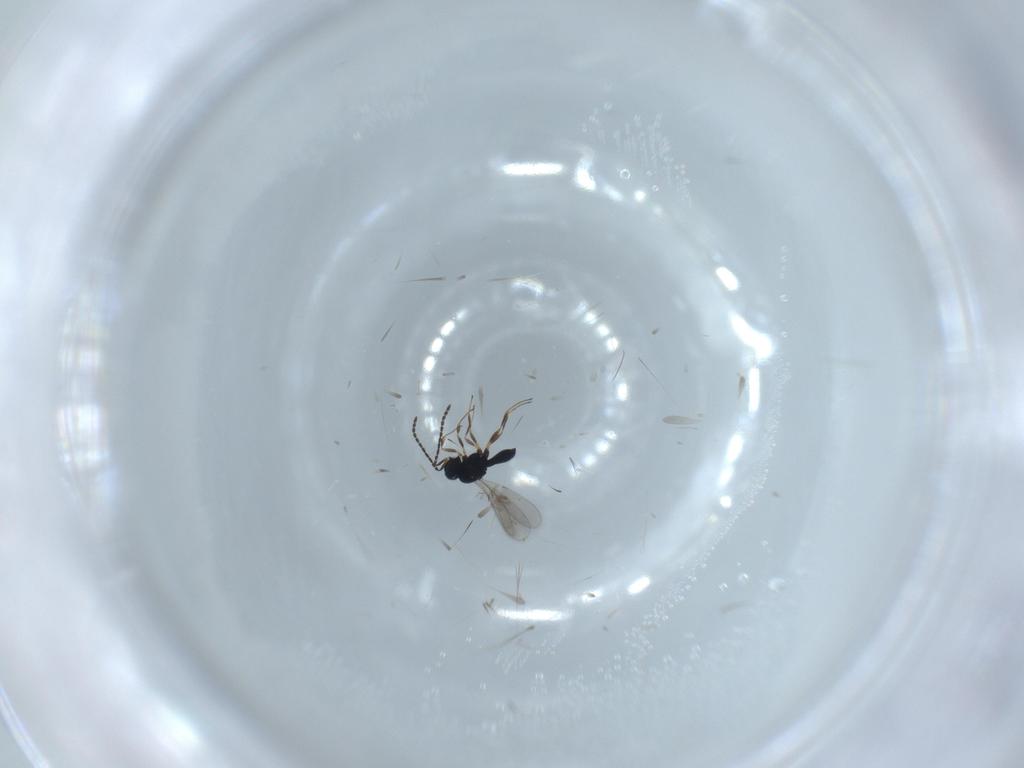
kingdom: Animalia
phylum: Arthropoda
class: Insecta
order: Hymenoptera
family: Scelionidae
